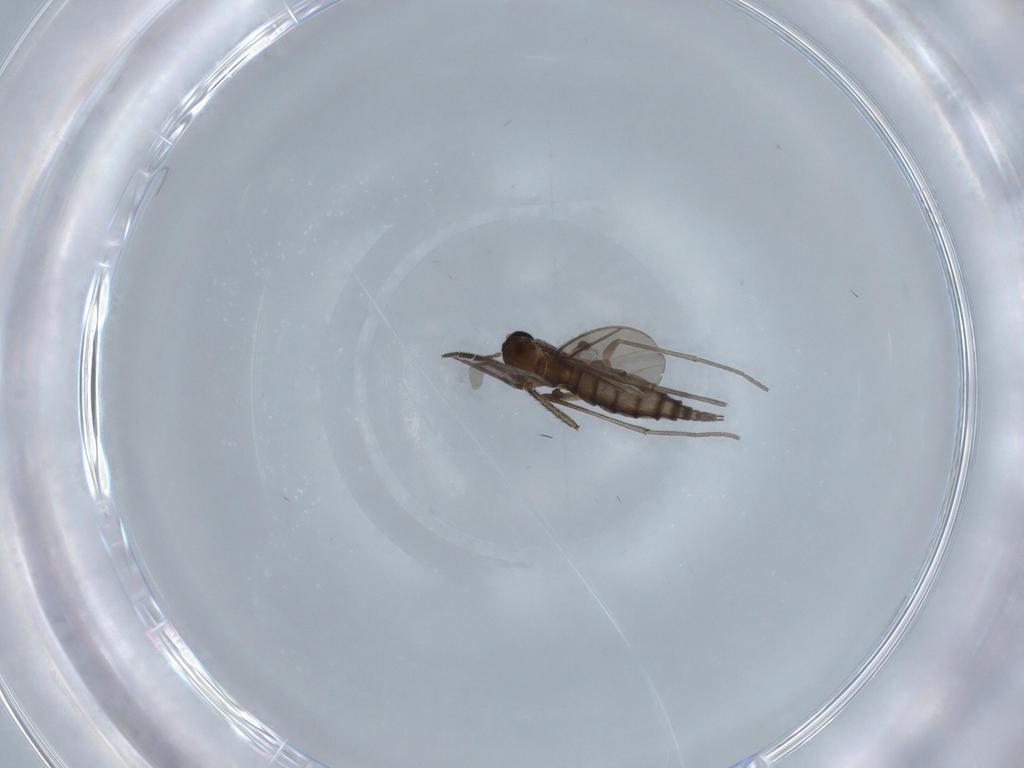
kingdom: Animalia
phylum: Arthropoda
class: Insecta
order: Diptera
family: Sciaridae
